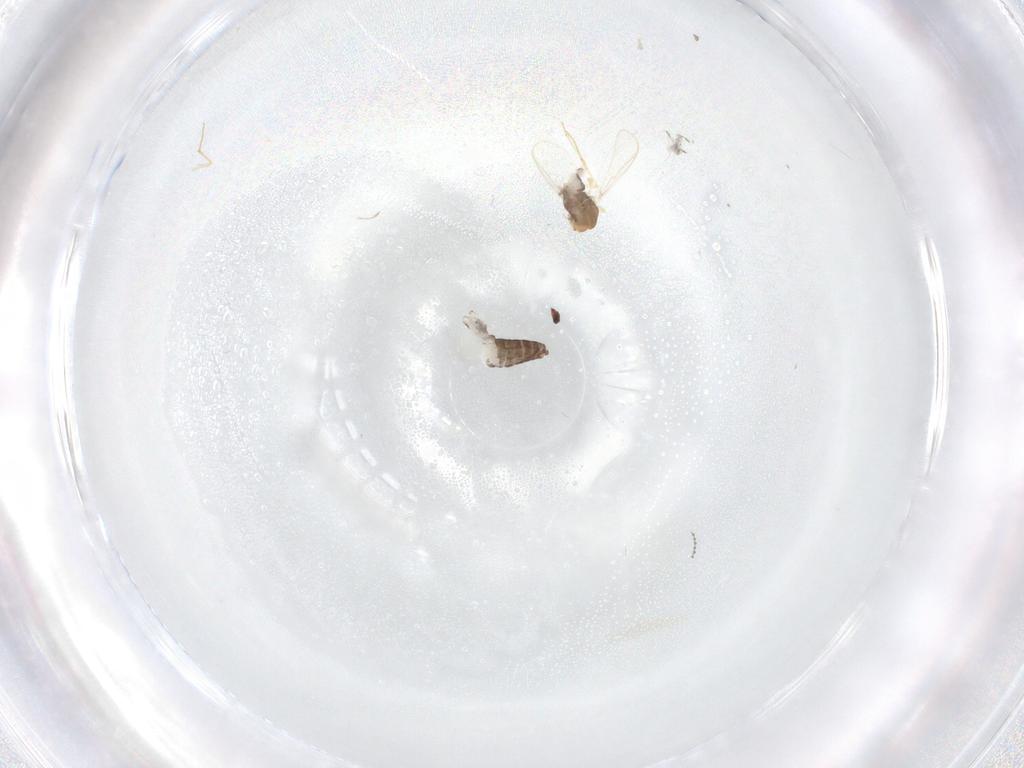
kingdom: Animalia
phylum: Arthropoda
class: Insecta
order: Diptera
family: Chironomidae
